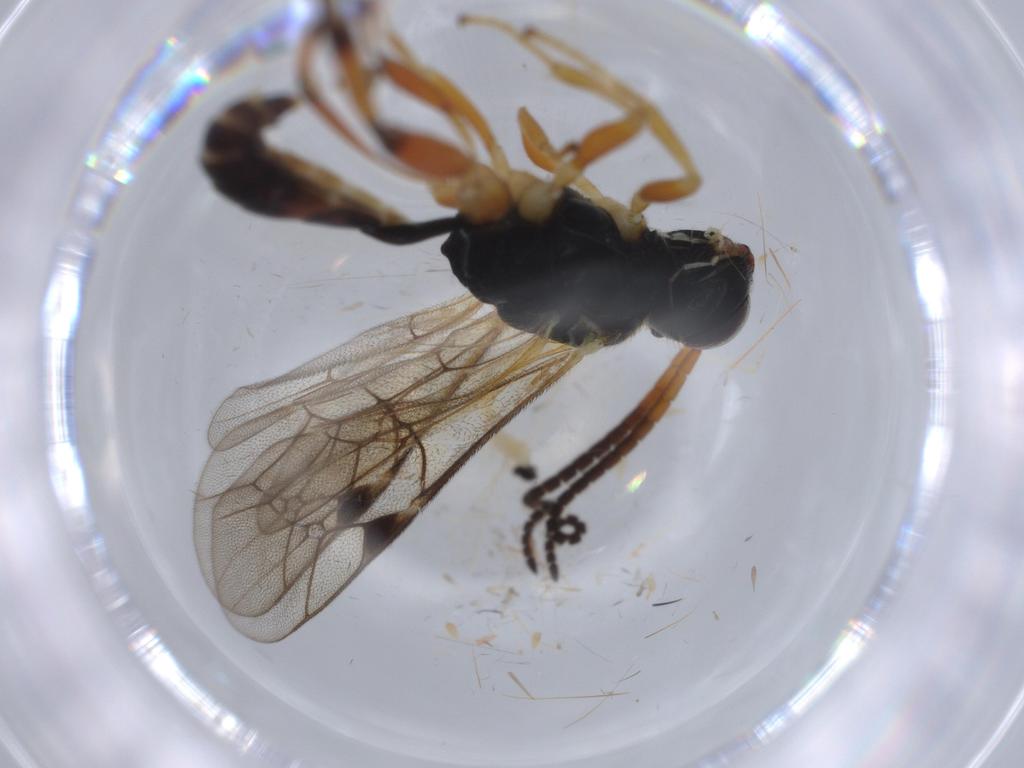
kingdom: Animalia
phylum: Arthropoda
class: Insecta
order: Hymenoptera
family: Ichneumonidae
